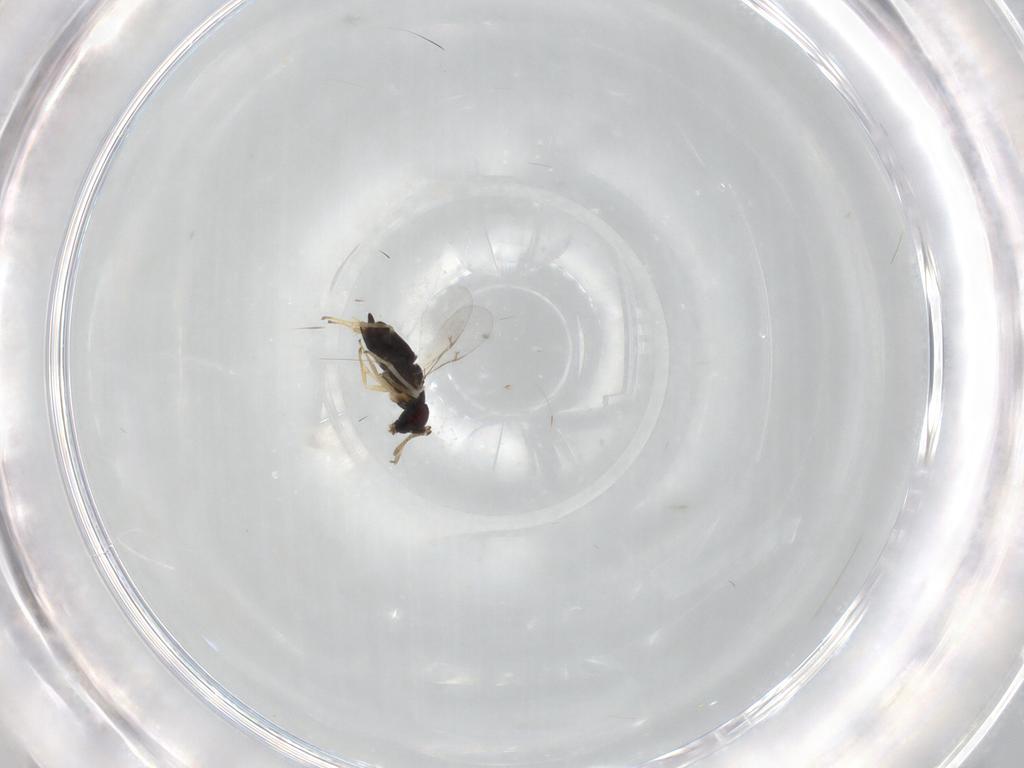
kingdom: Animalia
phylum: Arthropoda
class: Insecta
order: Hymenoptera
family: Encyrtidae
